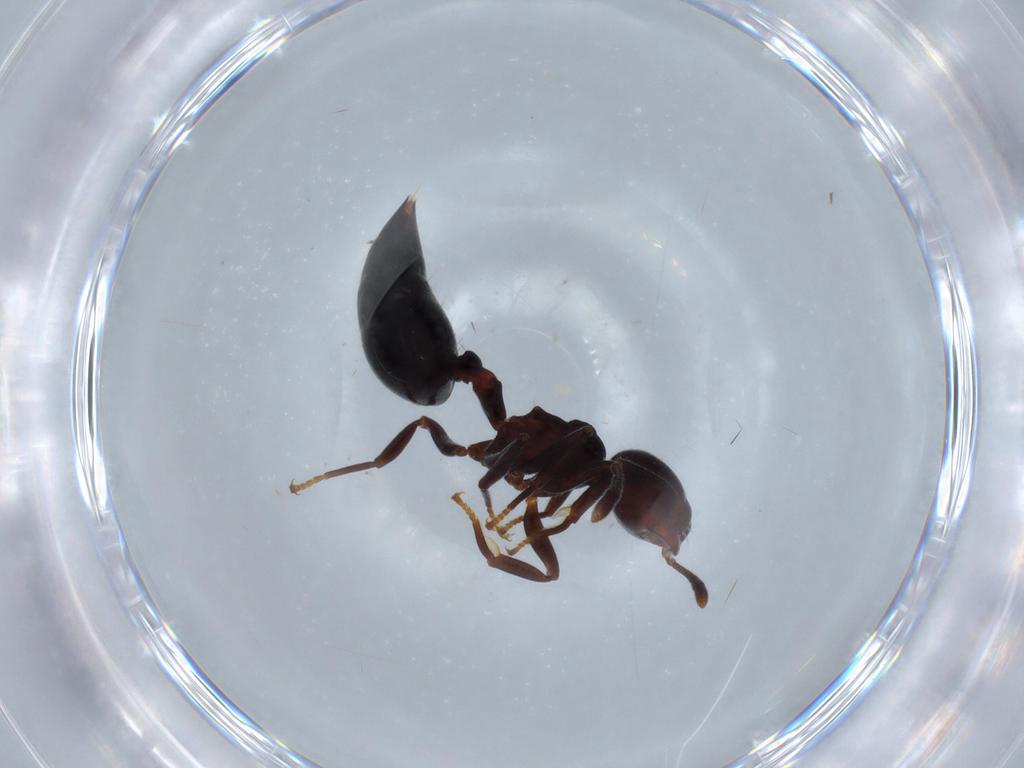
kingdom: Animalia
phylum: Arthropoda
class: Insecta
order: Hymenoptera
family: Formicidae
